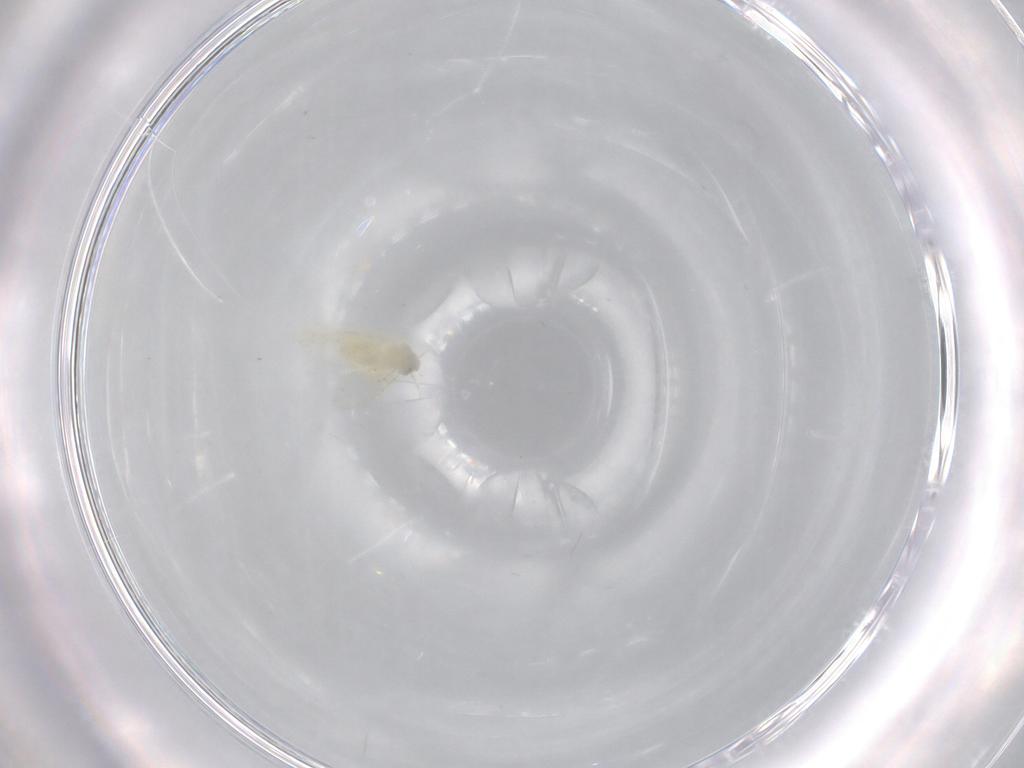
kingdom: Animalia
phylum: Arthropoda
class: Insecta
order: Hemiptera
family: Aleyrodidae
